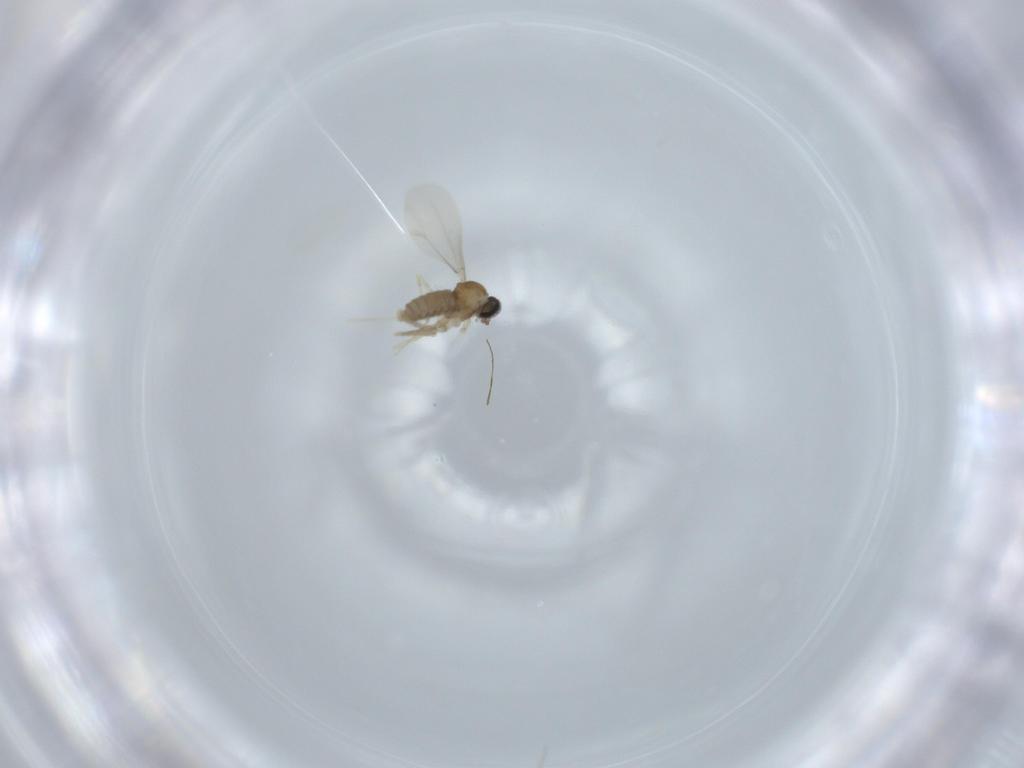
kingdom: Animalia
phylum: Arthropoda
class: Insecta
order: Diptera
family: Cecidomyiidae
